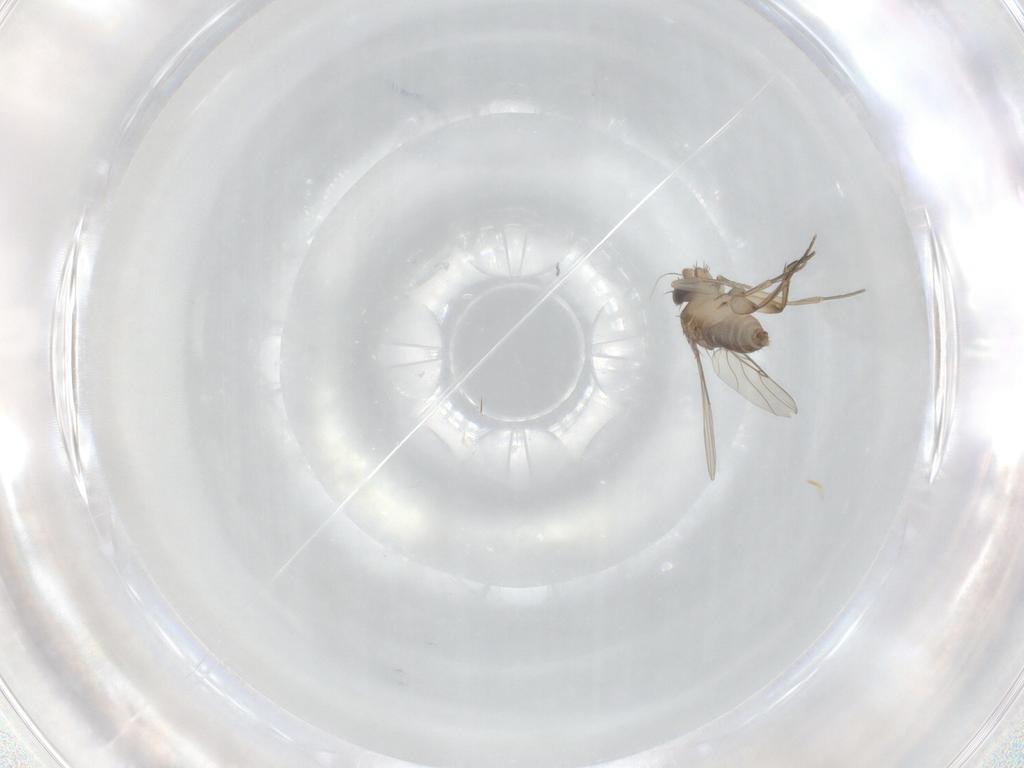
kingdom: Animalia
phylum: Arthropoda
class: Insecta
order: Diptera
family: Phoridae
